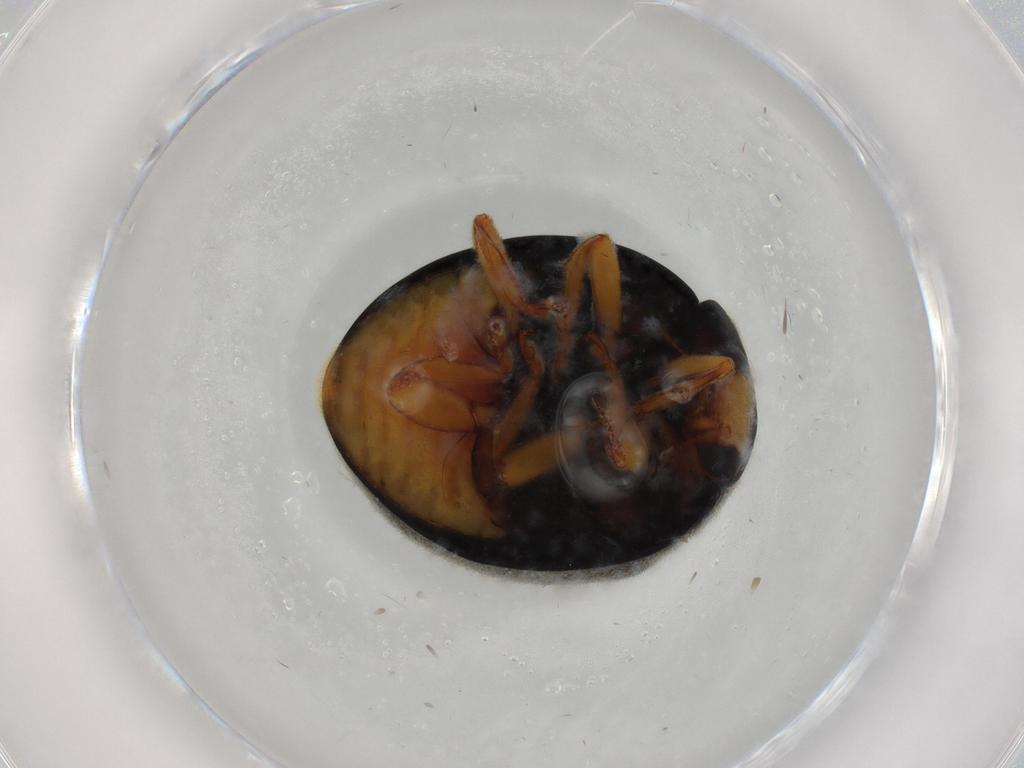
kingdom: Animalia
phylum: Arthropoda
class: Insecta
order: Coleoptera
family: Coccinellidae
